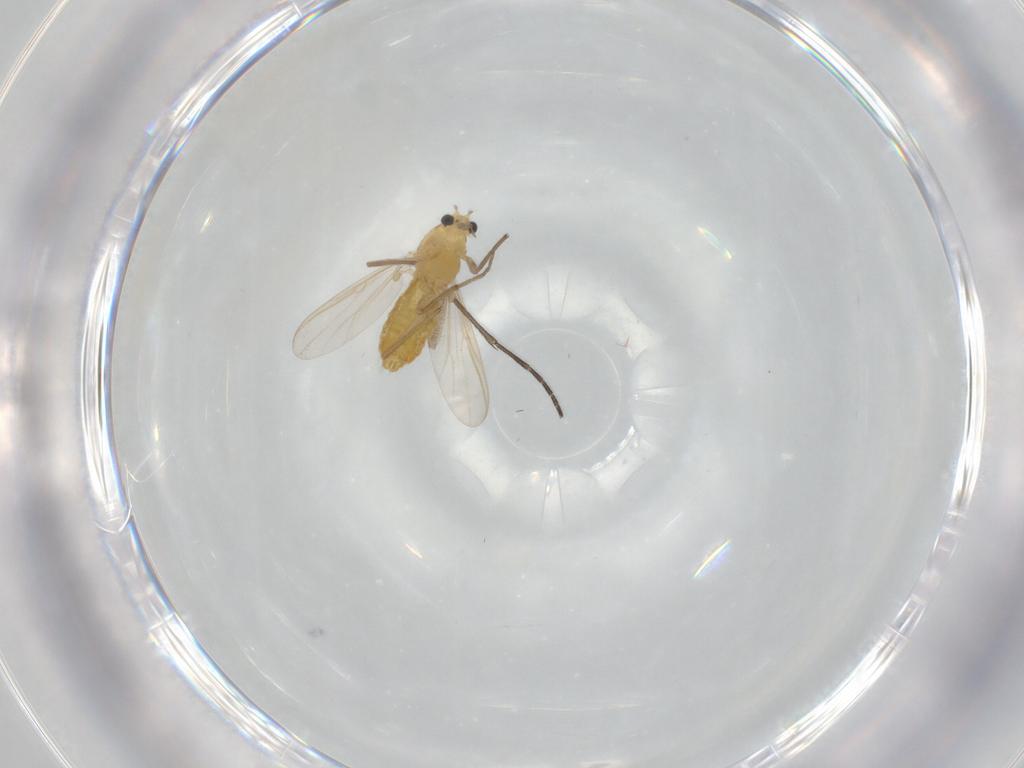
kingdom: Animalia
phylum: Arthropoda
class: Insecta
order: Diptera
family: Sciaridae
